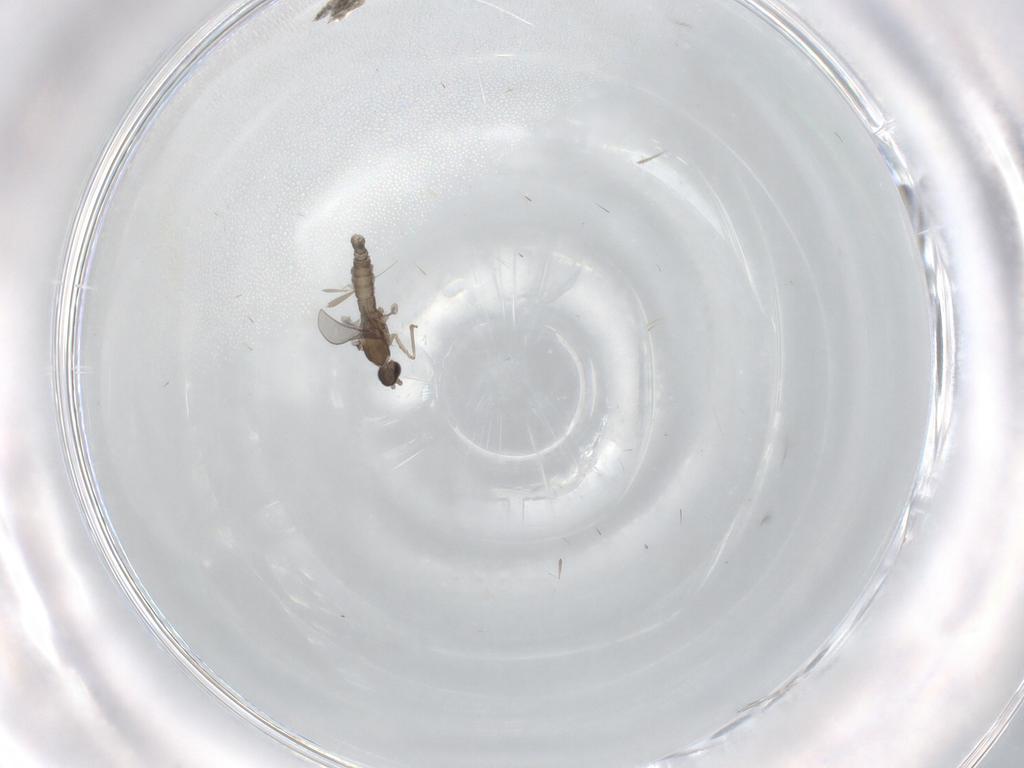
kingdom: Animalia
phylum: Arthropoda
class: Insecta
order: Diptera
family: Cecidomyiidae
